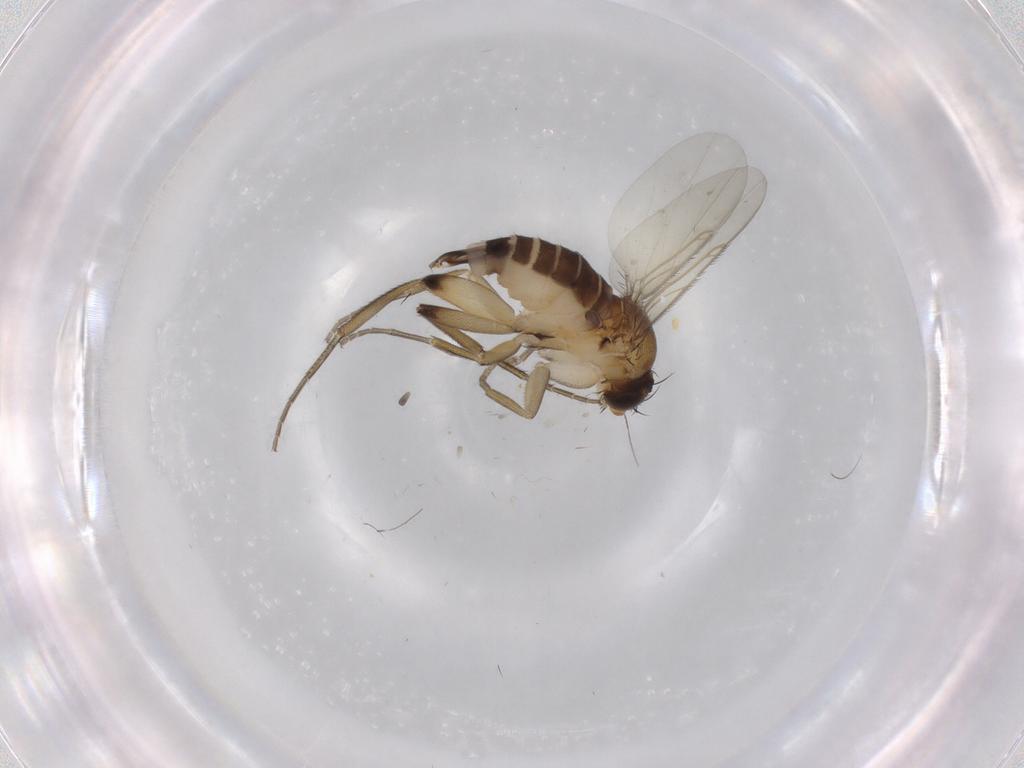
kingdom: Animalia
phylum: Arthropoda
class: Insecta
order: Diptera
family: Phoridae
